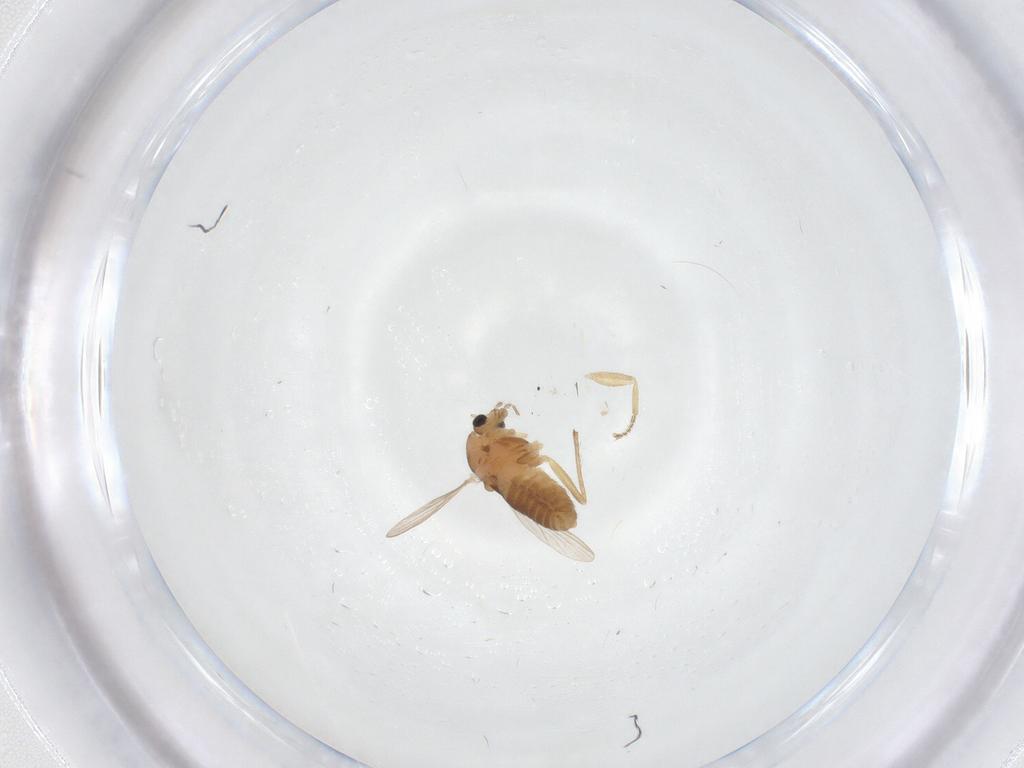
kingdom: Animalia
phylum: Arthropoda
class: Insecta
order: Diptera
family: Chironomidae
